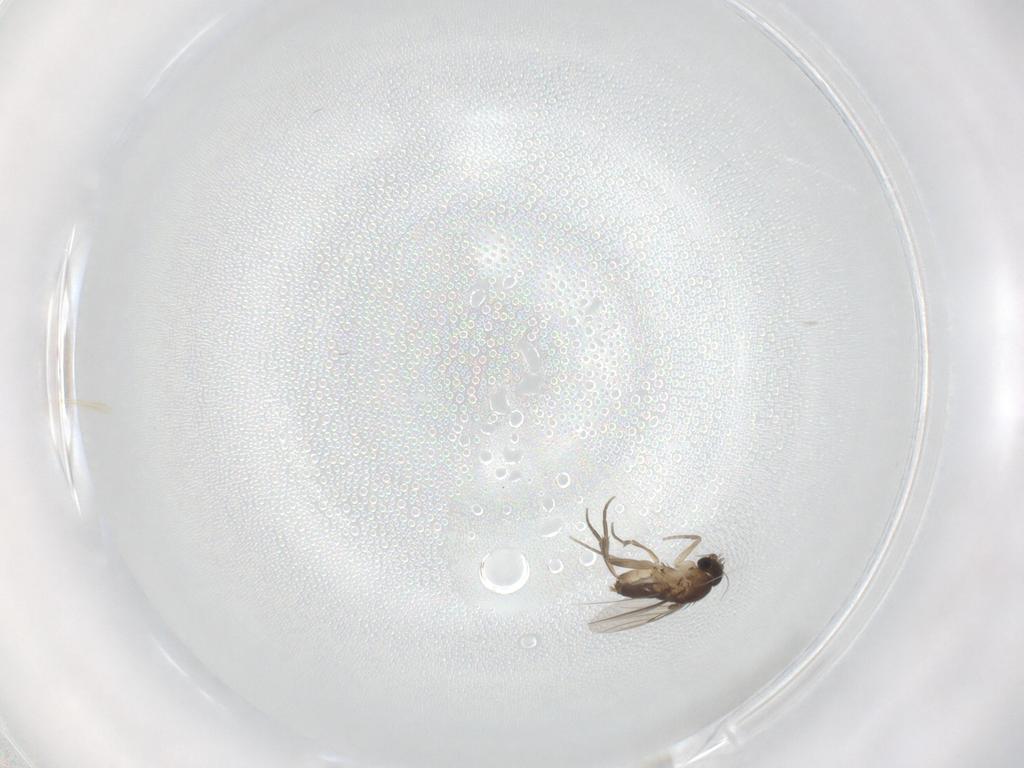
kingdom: Animalia
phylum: Arthropoda
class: Insecta
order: Diptera
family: Phoridae
